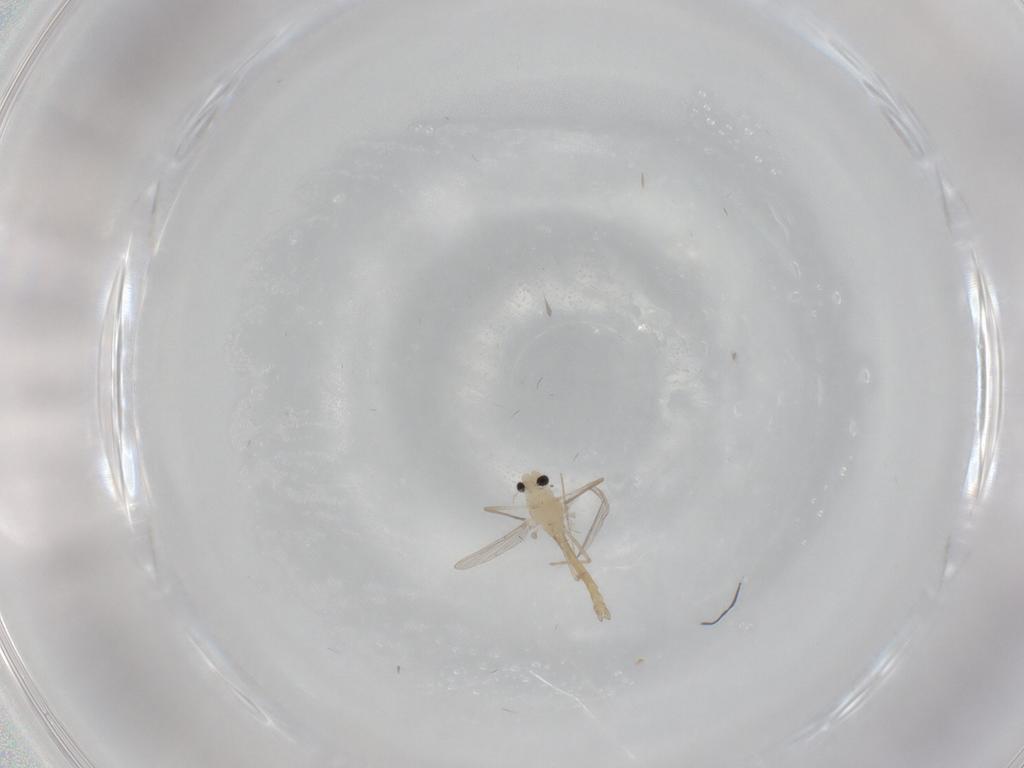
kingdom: Animalia
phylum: Arthropoda
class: Insecta
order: Diptera
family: Chironomidae
